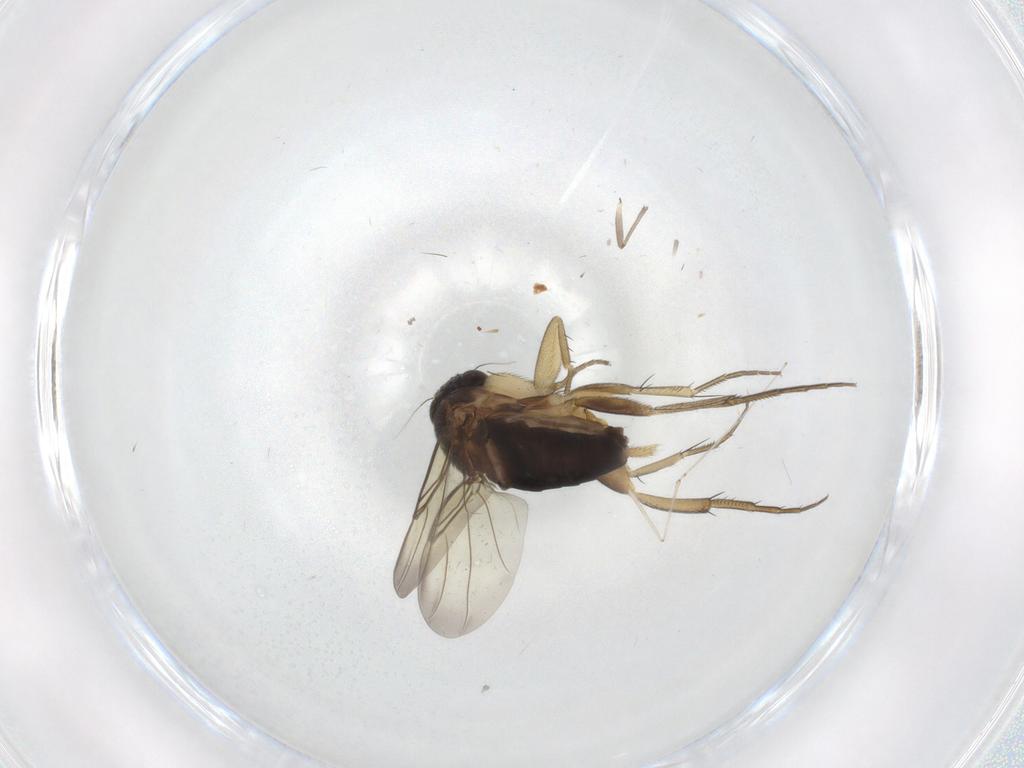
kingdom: Animalia
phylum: Arthropoda
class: Insecta
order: Diptera
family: Phoridae
